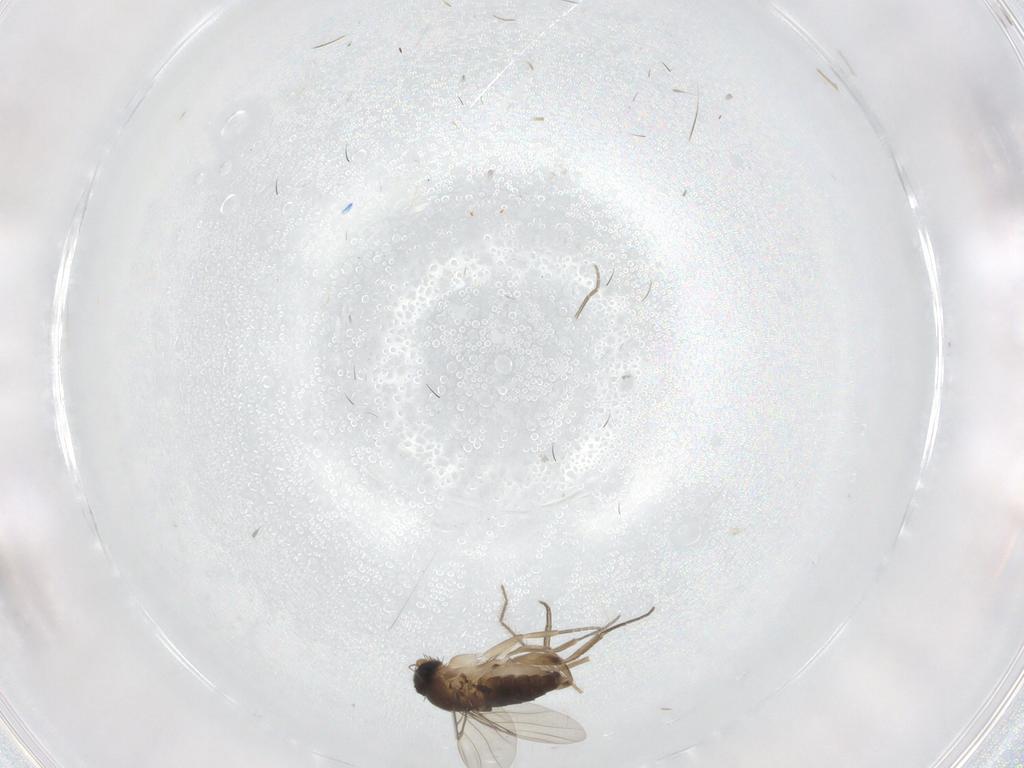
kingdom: Animalia
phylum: Arthropoda
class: Insecta
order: Diptera
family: Phoridae
